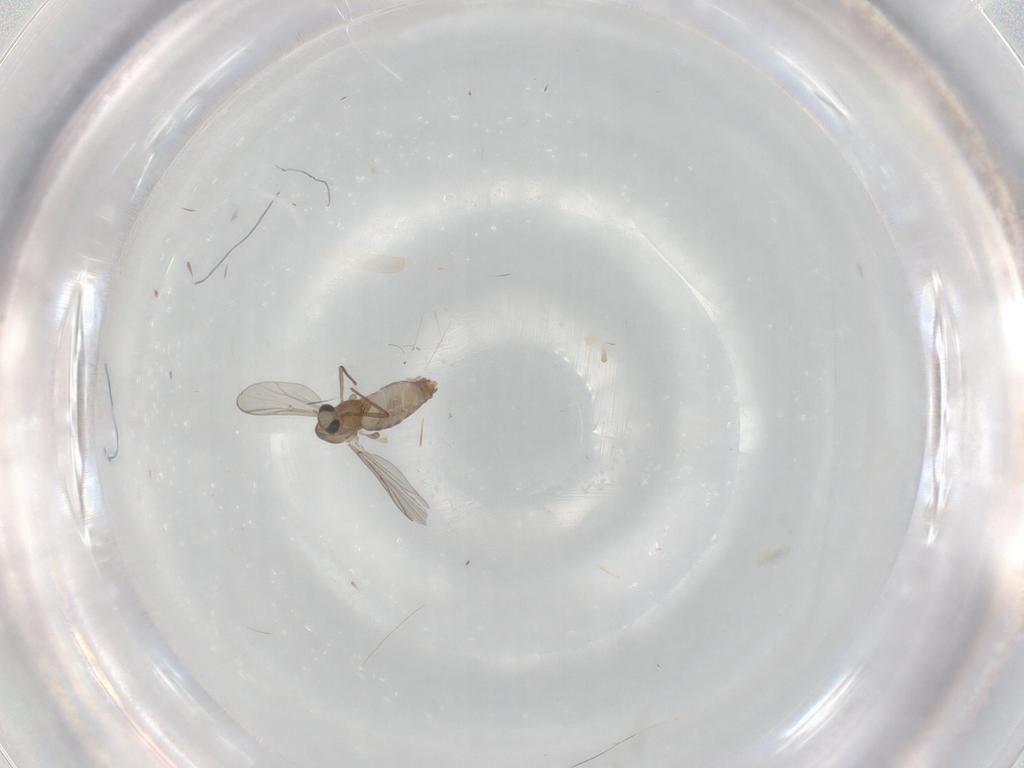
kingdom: Animalia
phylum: Arthropoda
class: Insecta
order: Diptera
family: Chironomidae
